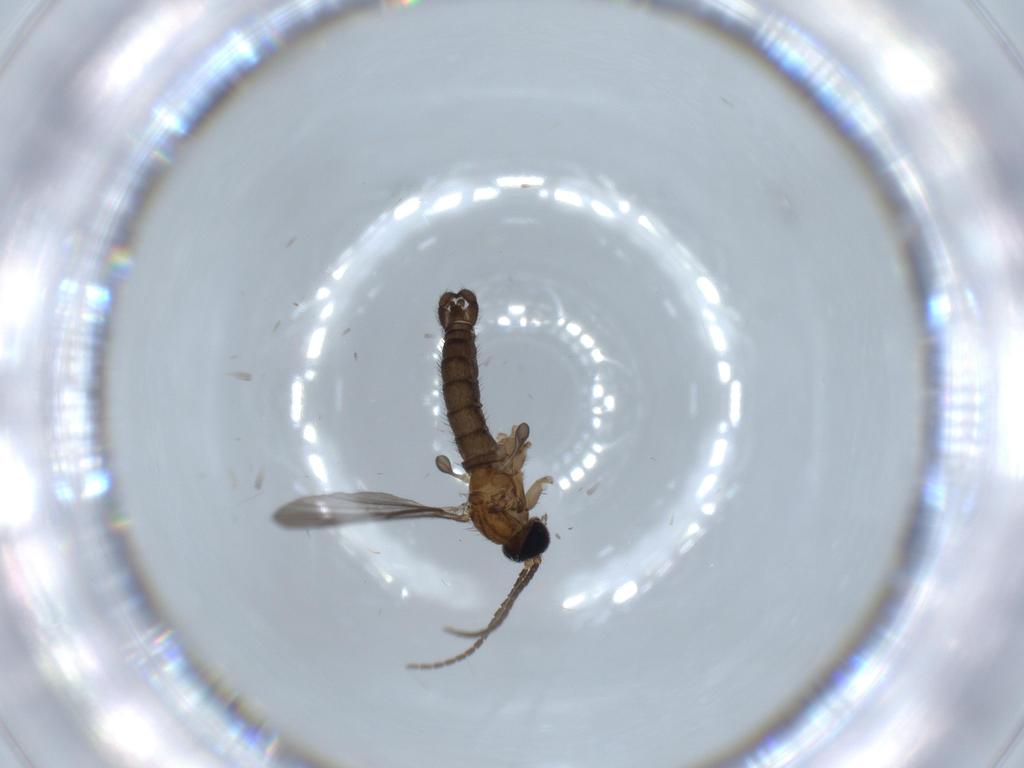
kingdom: Animalia
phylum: Arthropoda
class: Insecta
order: Diptera
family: Sciaridae
